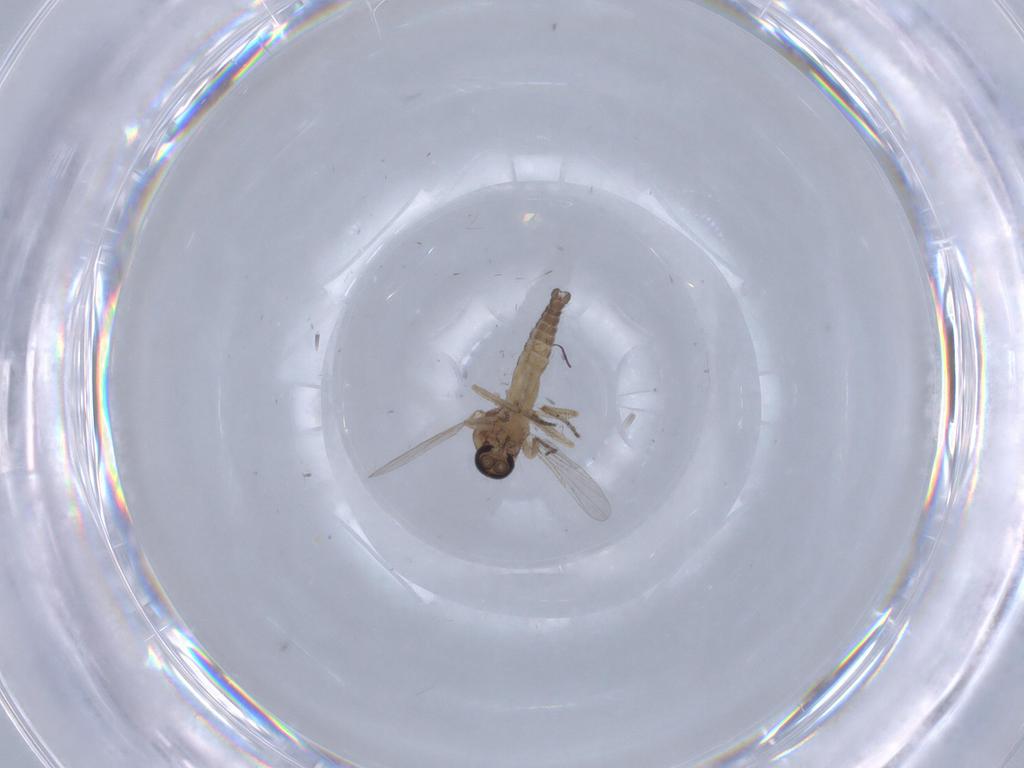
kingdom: Animalia
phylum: Arthropoda
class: Insecta
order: Diptera
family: Ceratopogonidae
